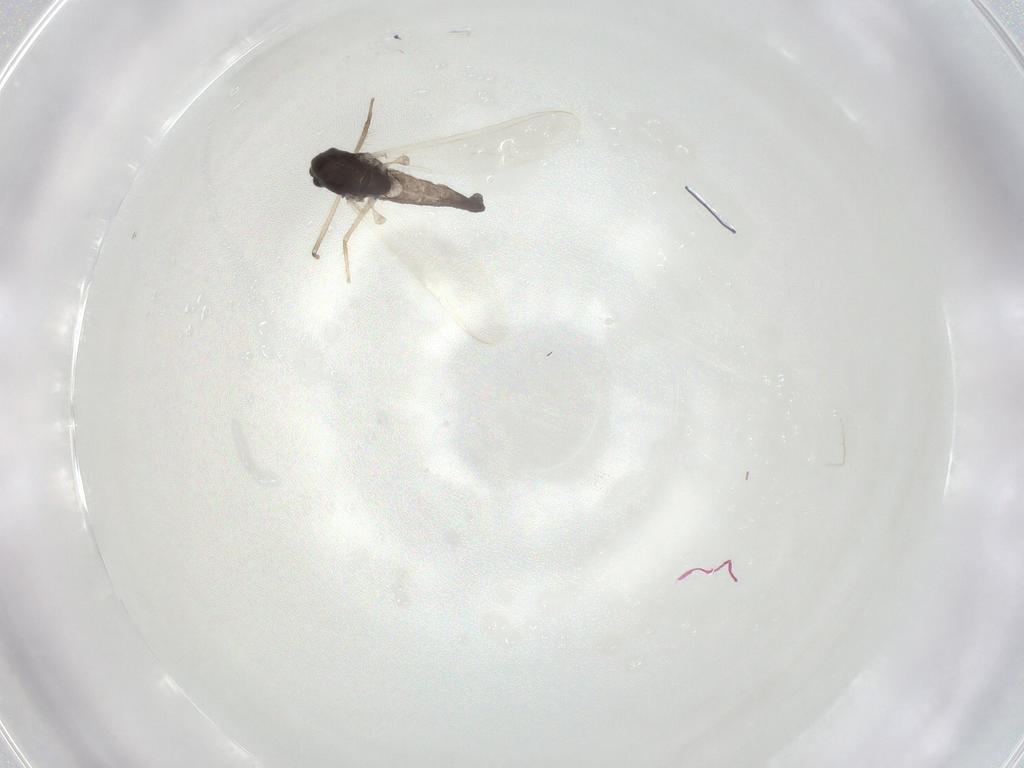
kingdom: Animalia
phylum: Arthropoda
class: Insecta
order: Diptera
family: Chironomidae
